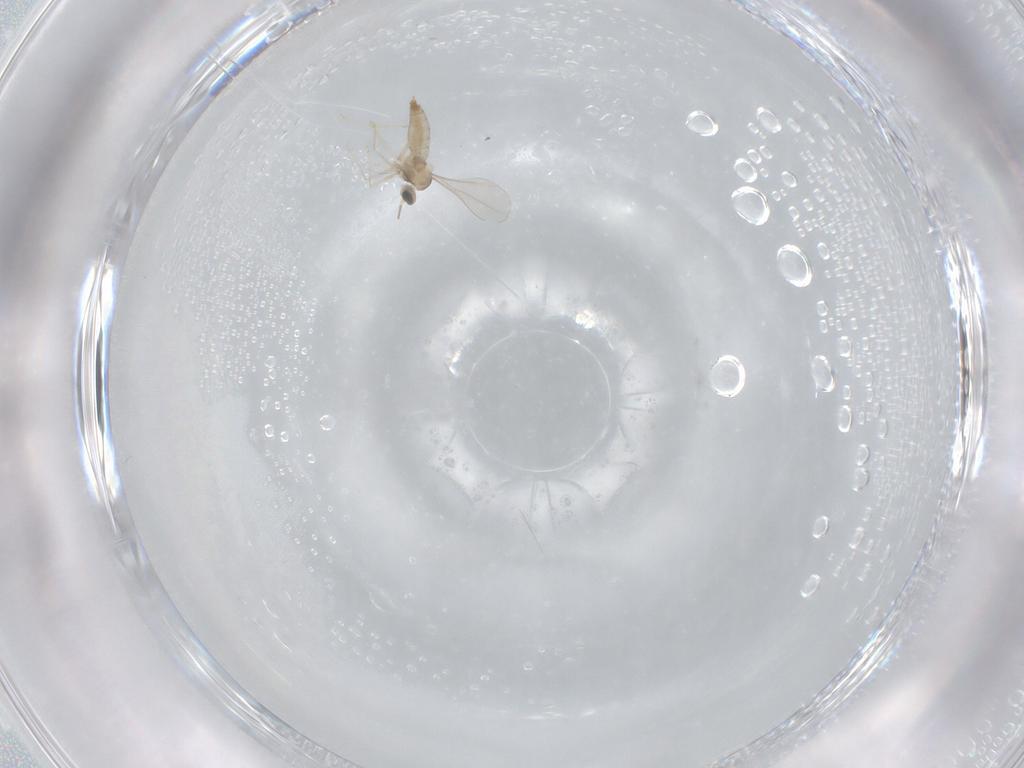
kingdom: Animalia
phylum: Arthropoda
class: Insecta
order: Diptera
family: Cecidomyiidae
